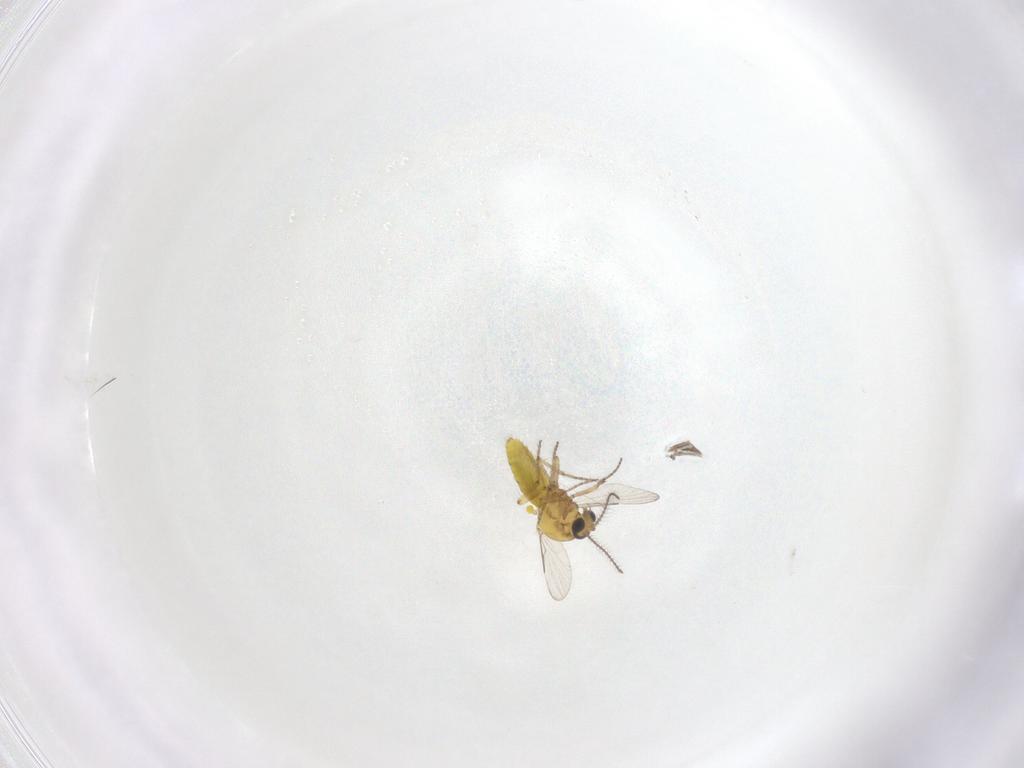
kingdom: Animalia
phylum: Arthropoda
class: Insecta
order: Diptera
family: Ceratopogonidae
